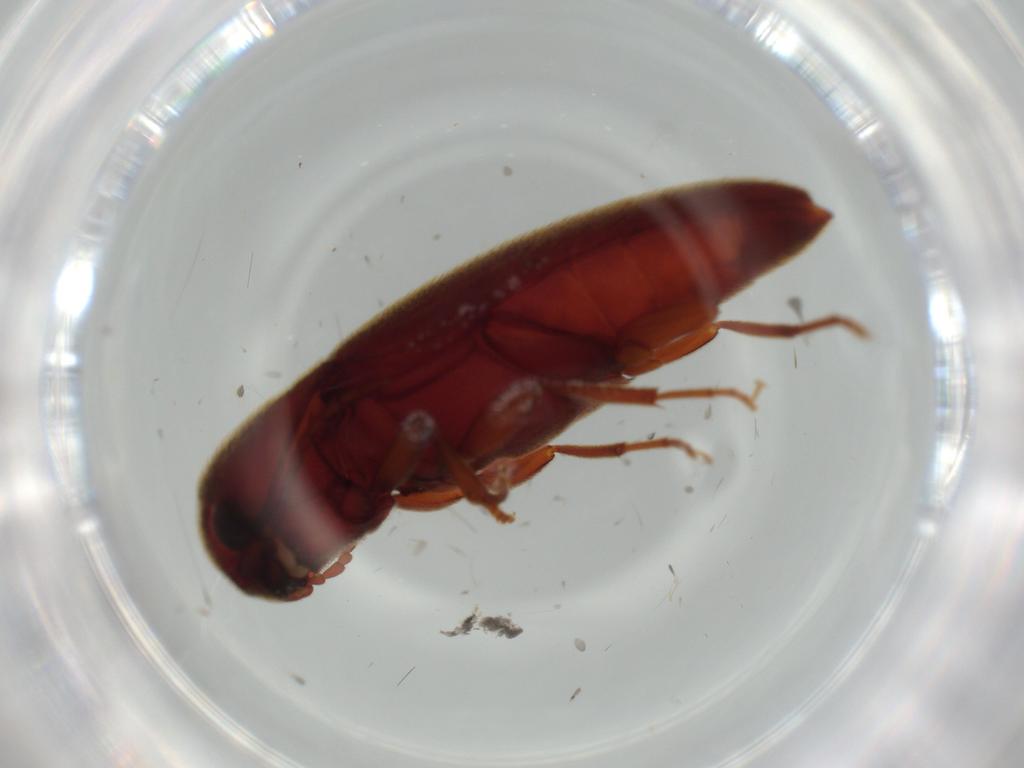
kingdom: Animalia
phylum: Arthropoda
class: Insecta
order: Coleoptera
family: Eucnemidae
